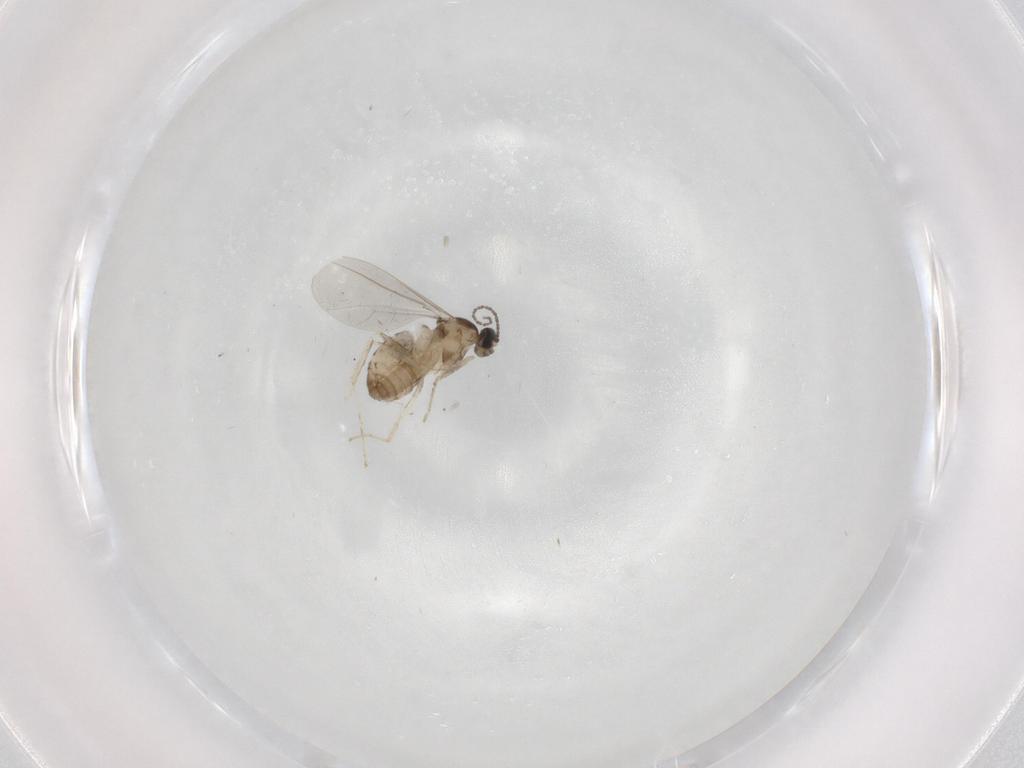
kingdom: Animalia
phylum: Arthropoda
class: Insecta
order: Diptera
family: Cecidomyiidae
